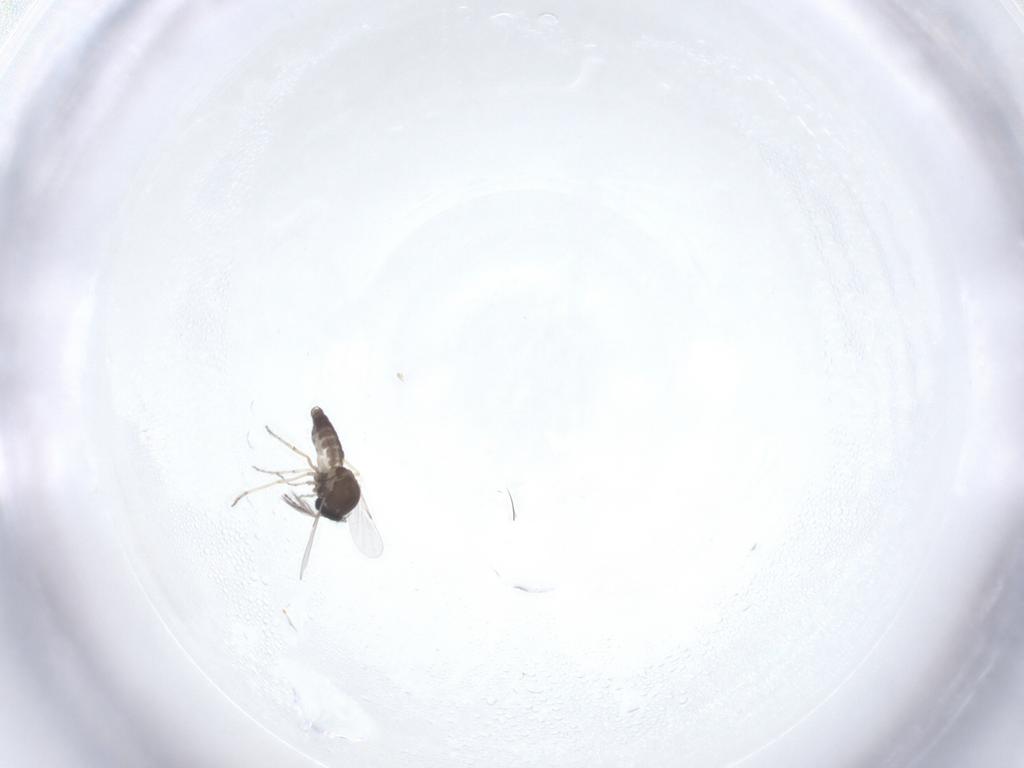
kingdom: Animalia
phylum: Arthropoda
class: Insecta
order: Diptera
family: Ceratopogonidae
